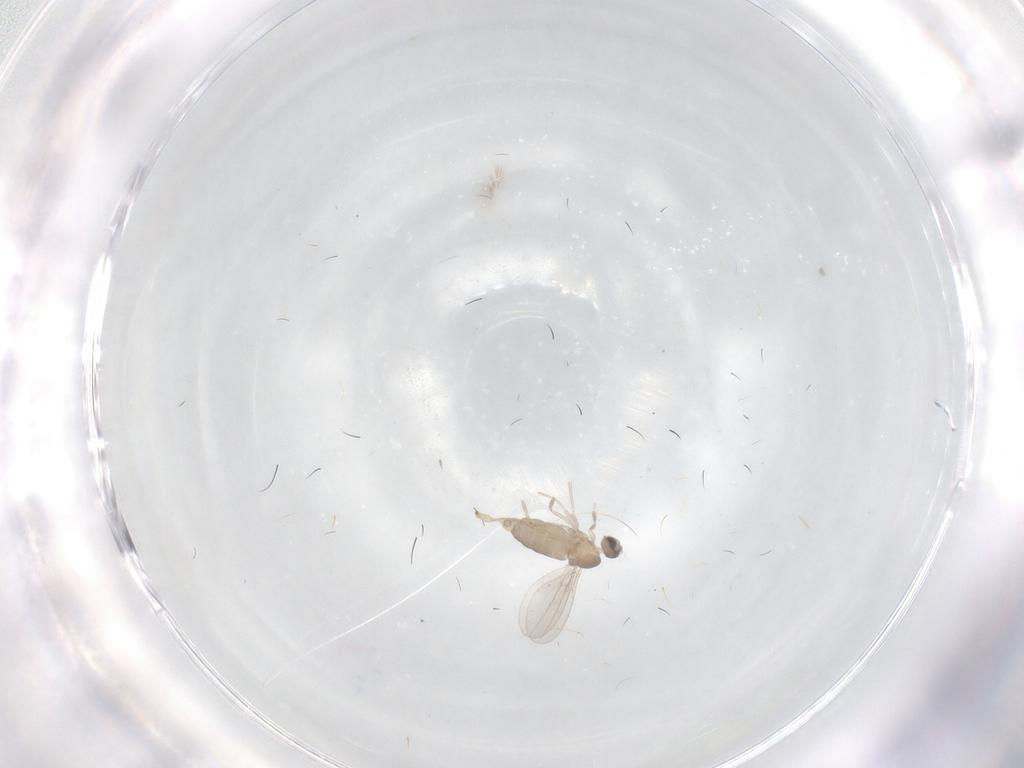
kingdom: Animalia
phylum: Arthropoda
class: Insecta
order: Diptera
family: Cecidomyiidae
